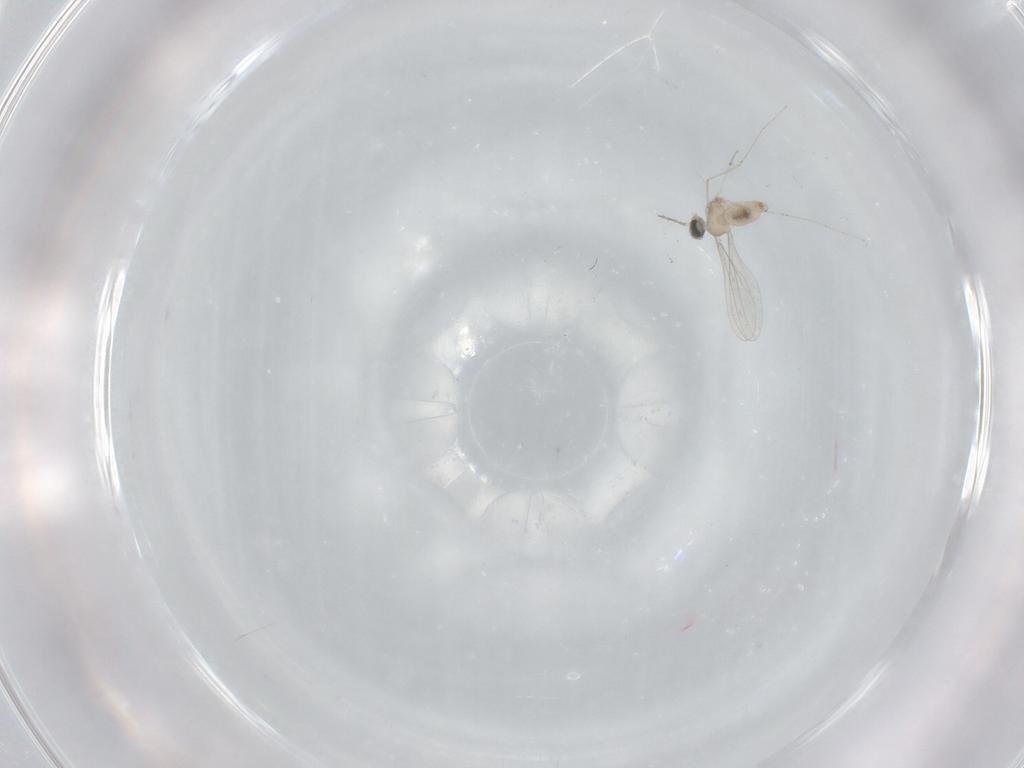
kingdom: Animalia
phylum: Arthropoda
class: Insecta
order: Diptera
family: Cecidomyiidae
